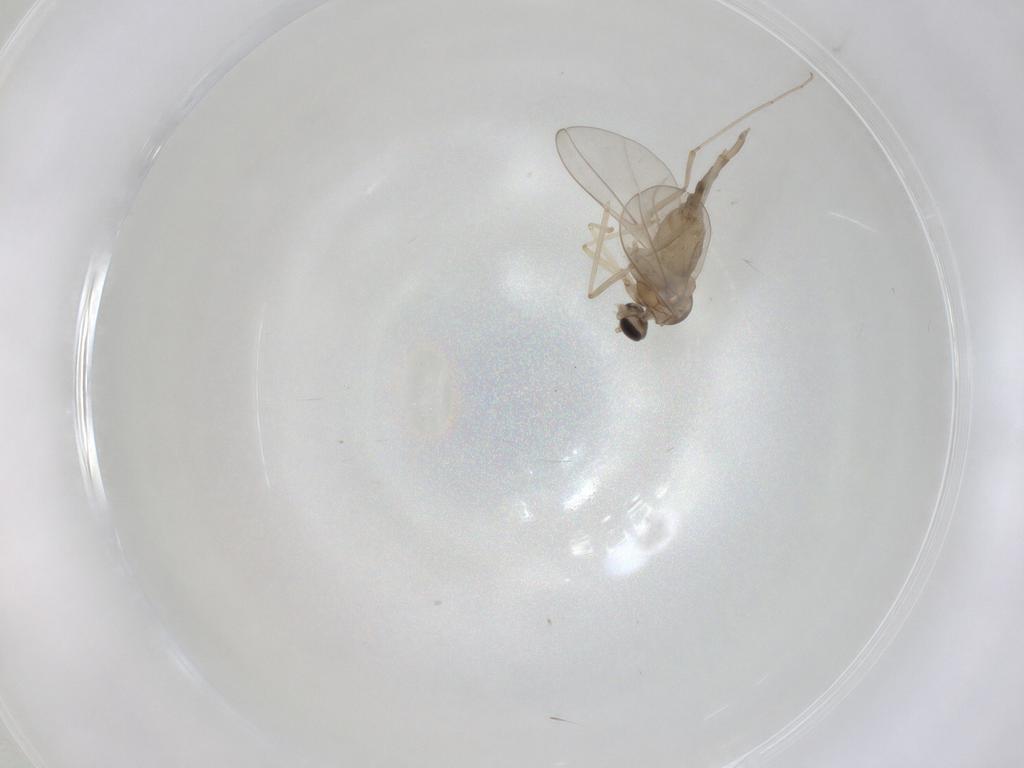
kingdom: Animalia
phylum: Arthropoda
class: Insecta
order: Diptera
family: Cecidomyiidae
